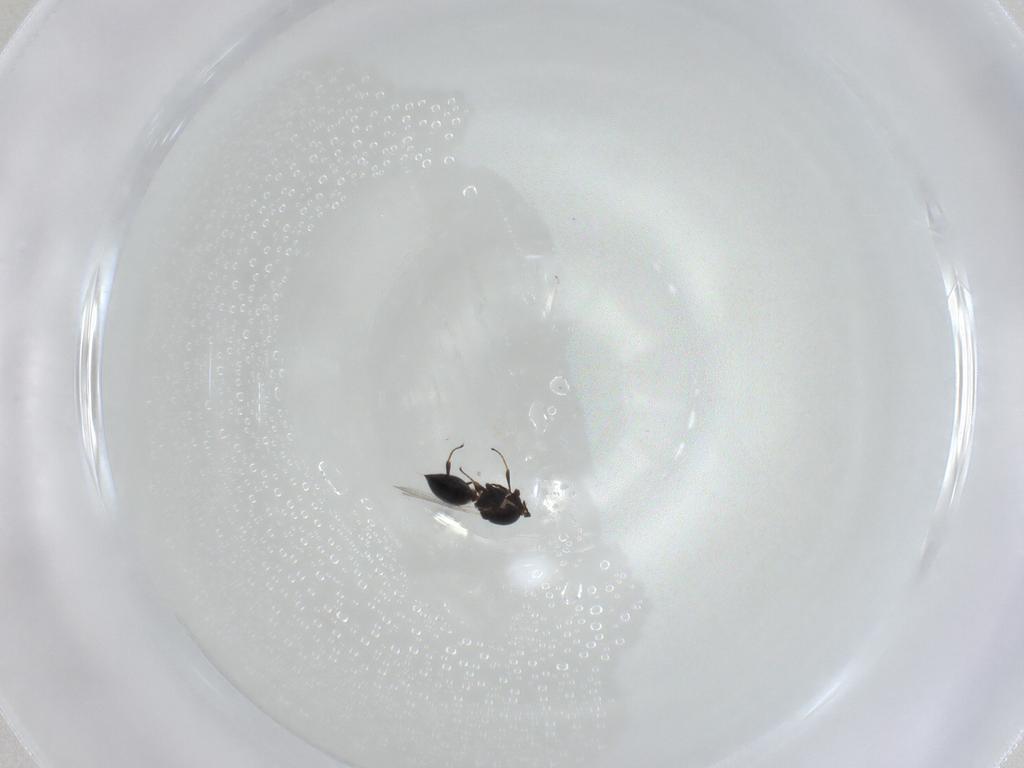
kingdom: Animalia
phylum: Arthropoda
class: Insecta
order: Hymenoptera
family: Platygastridae
